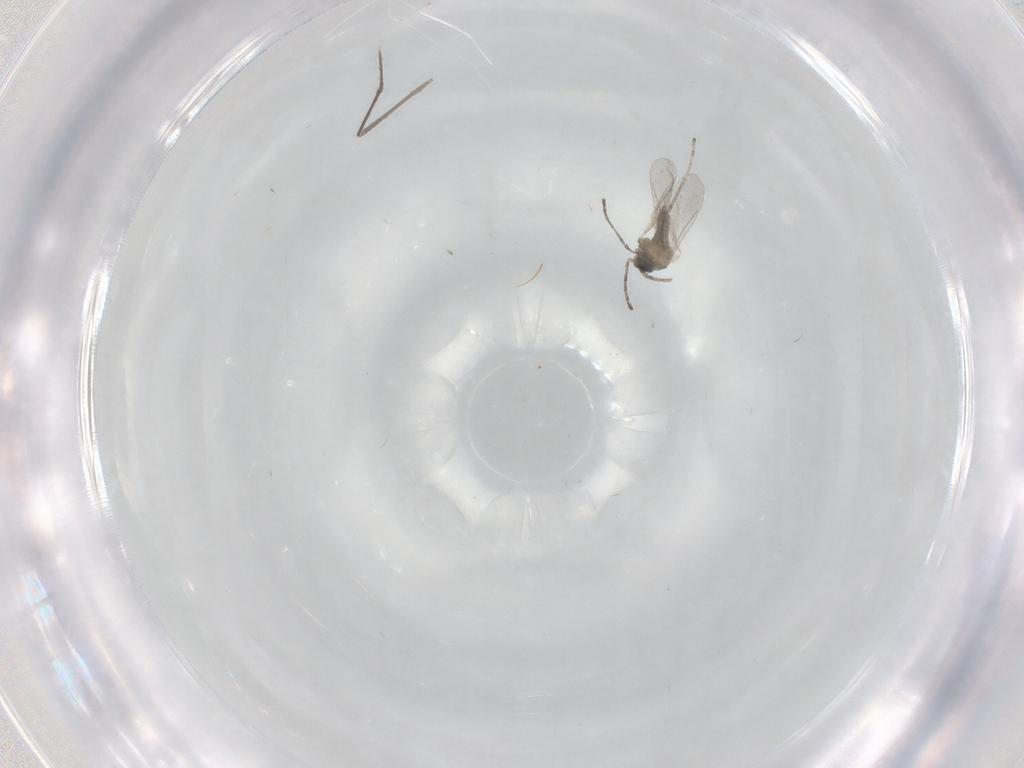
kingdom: Animalia
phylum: Arthropoda
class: Insecta
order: Diptera
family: Cecidomyiidae
